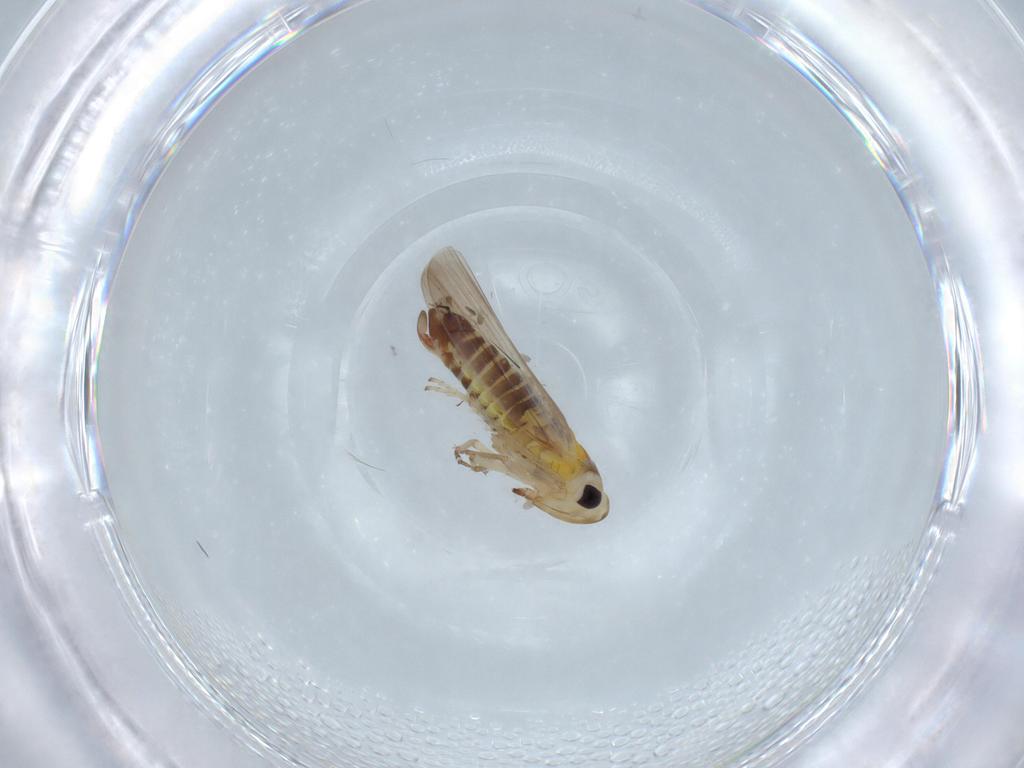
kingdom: Animalia
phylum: Arthropoda
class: Insecta
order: Hemiptera
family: Cicadellidae
